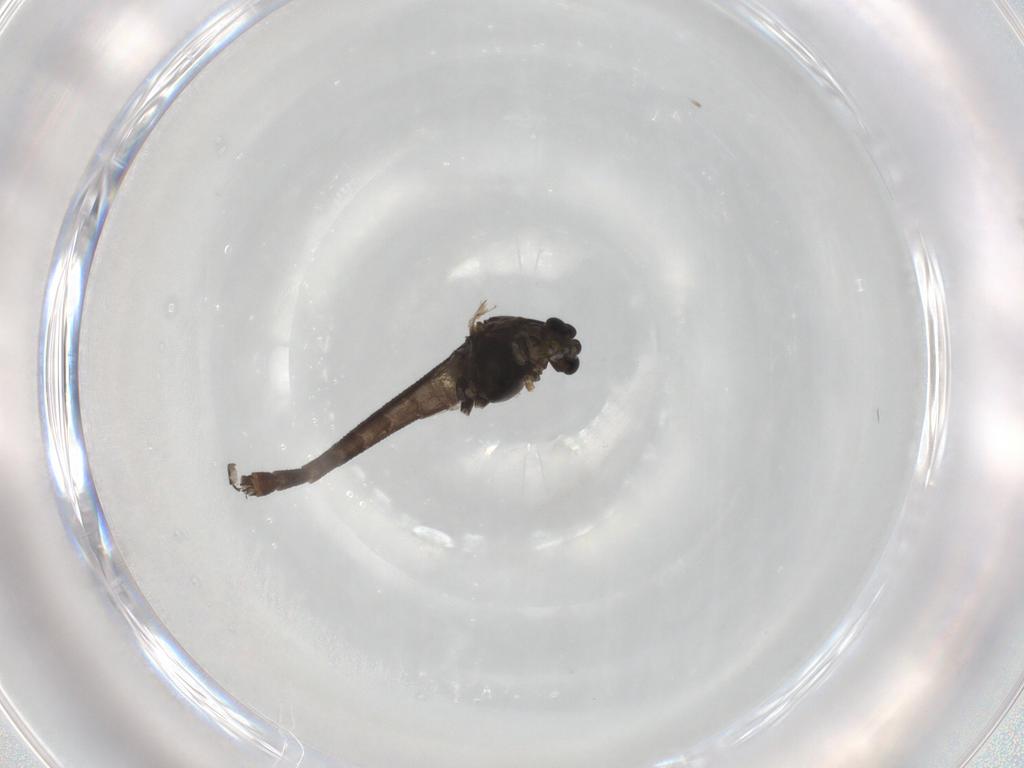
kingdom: Animalia
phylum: Arthropoda
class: Insecta
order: Diptera
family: Chironomidae
